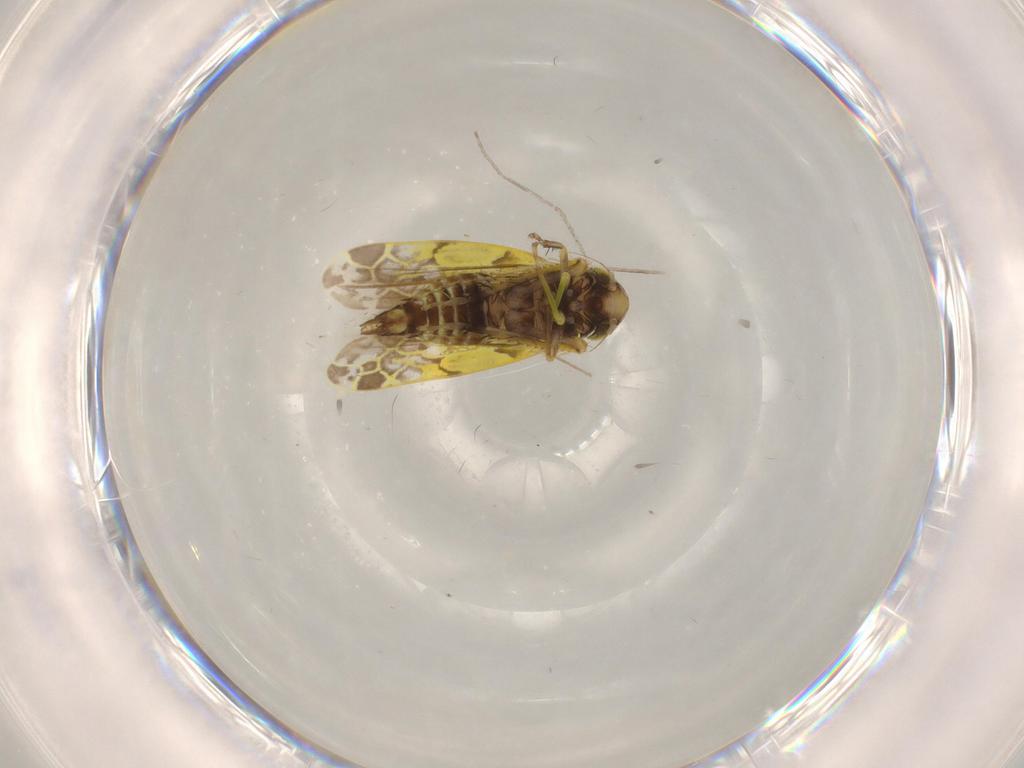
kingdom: Animalia
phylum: Arthropoda
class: Insecta
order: Hemiptera
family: Cicadellidae
